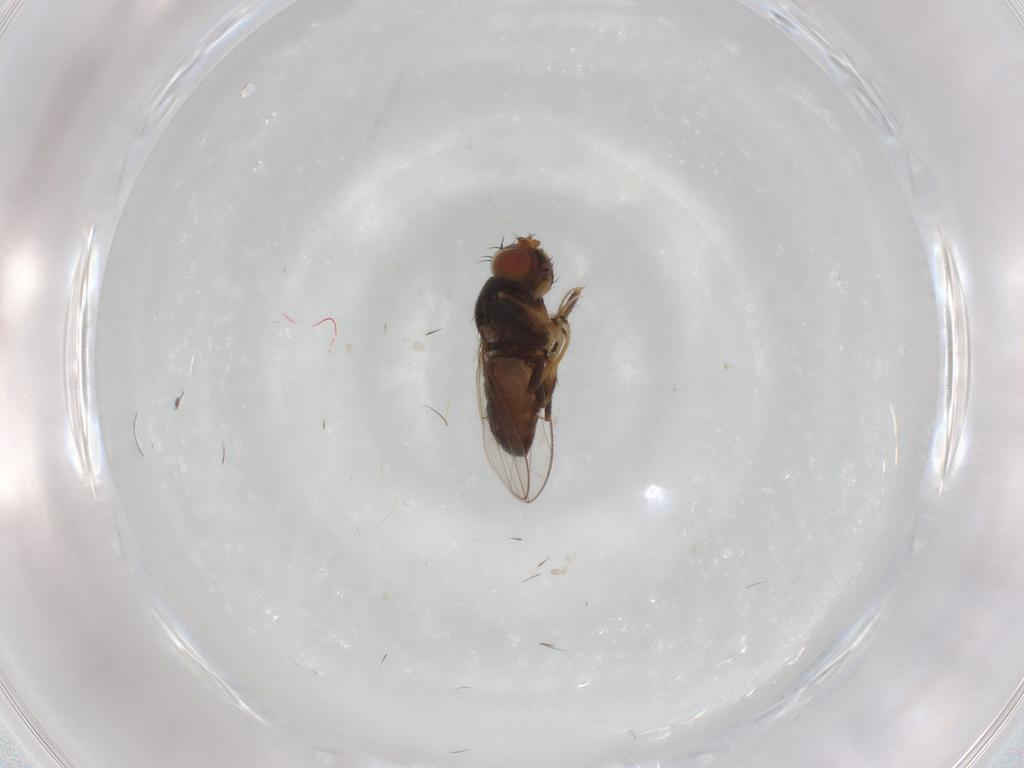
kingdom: Animalia
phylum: Arthropoda
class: Insecta
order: Diptera
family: Ephydridae
